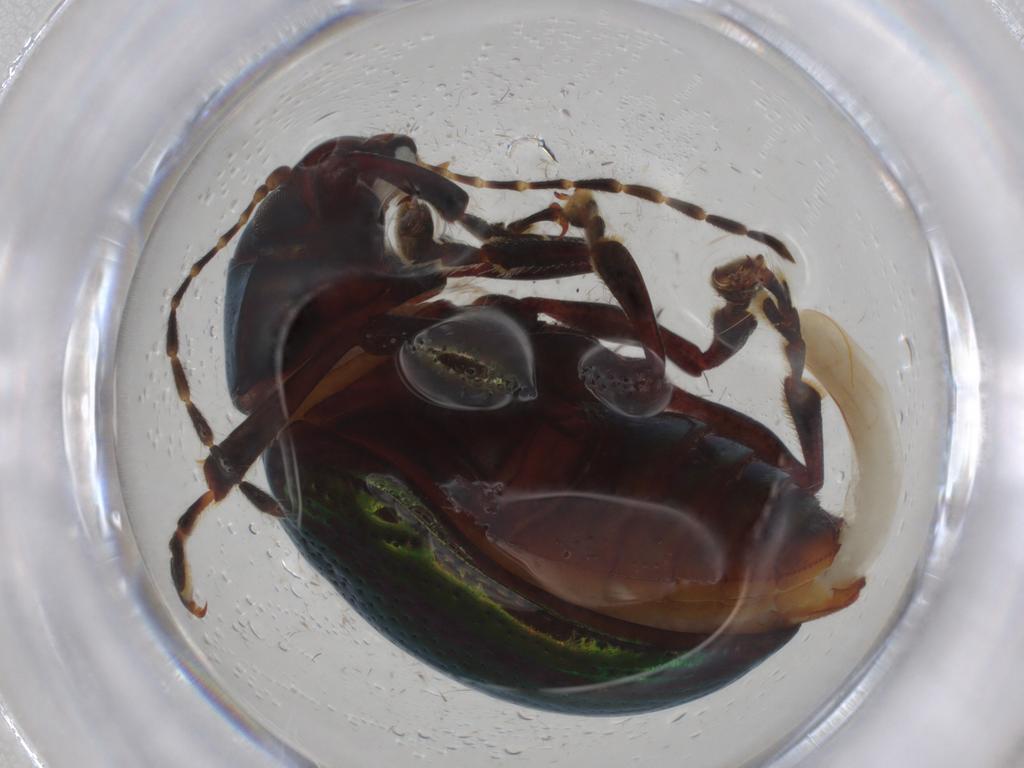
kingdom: Animalia
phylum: Arthropoda
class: Insecta
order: Coleoptera
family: Chrysomelidae
